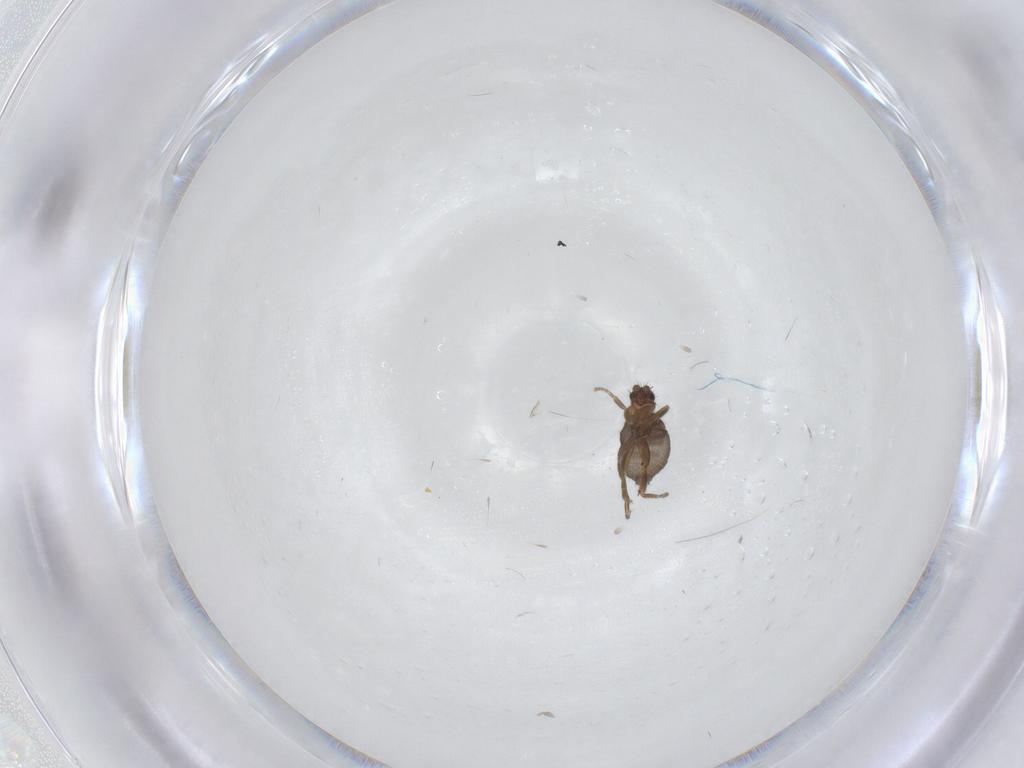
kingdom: Animalia
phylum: Arthropoda
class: Insecta
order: Diptera
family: Phoridae
